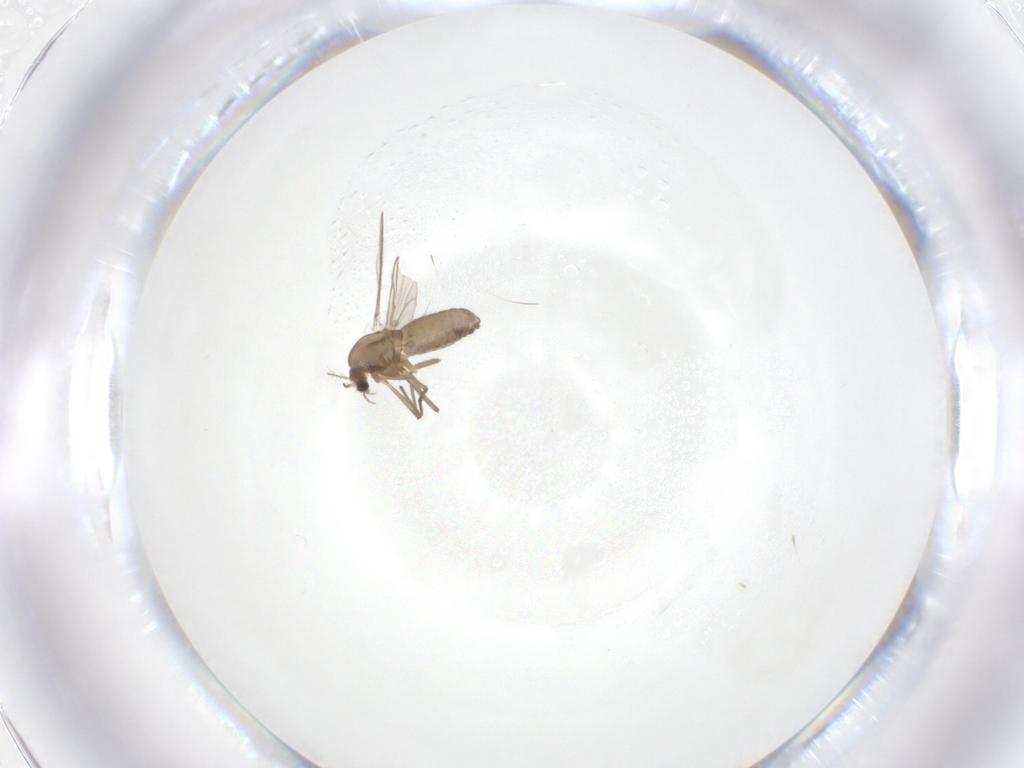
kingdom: Animalia
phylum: Arthropoda
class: Insecta
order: Diptera
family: Chironomidae
